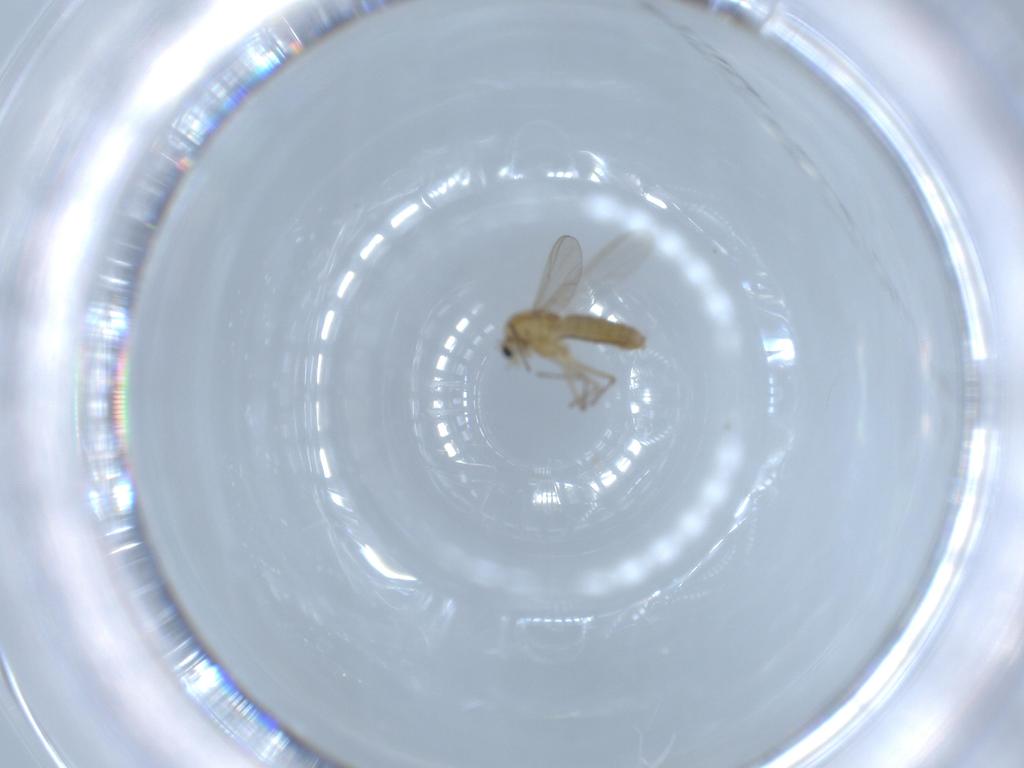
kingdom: Animalia
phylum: Arthropoda
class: Insecta
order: Diptera
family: Chironomidae
